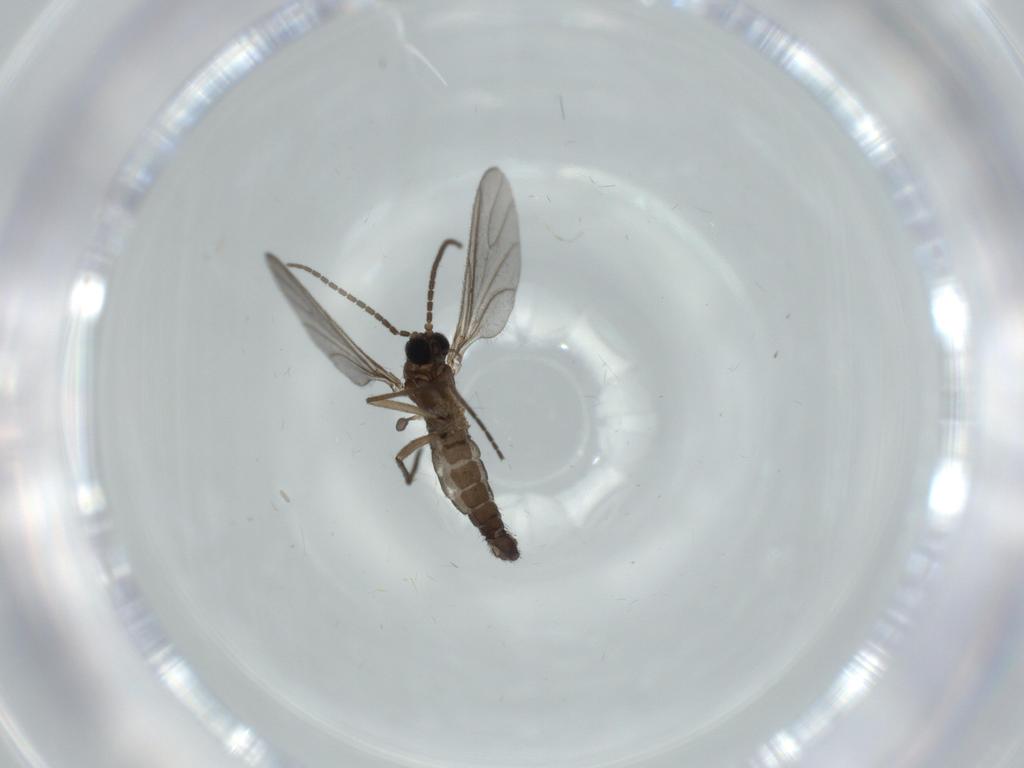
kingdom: Animalia
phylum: Arthropoda
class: Insecta
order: Diptera
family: Sciaridae
